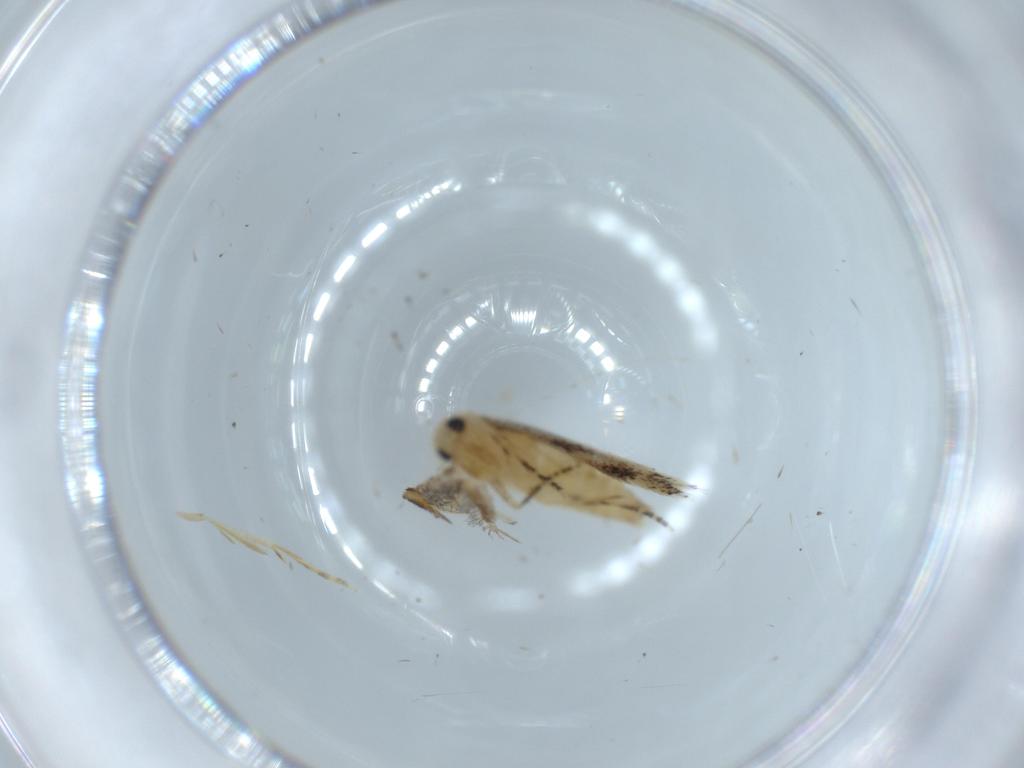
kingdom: Animalia
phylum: Arthropoda
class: Insecta
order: Lepidoptera
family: Bucculatricidae
